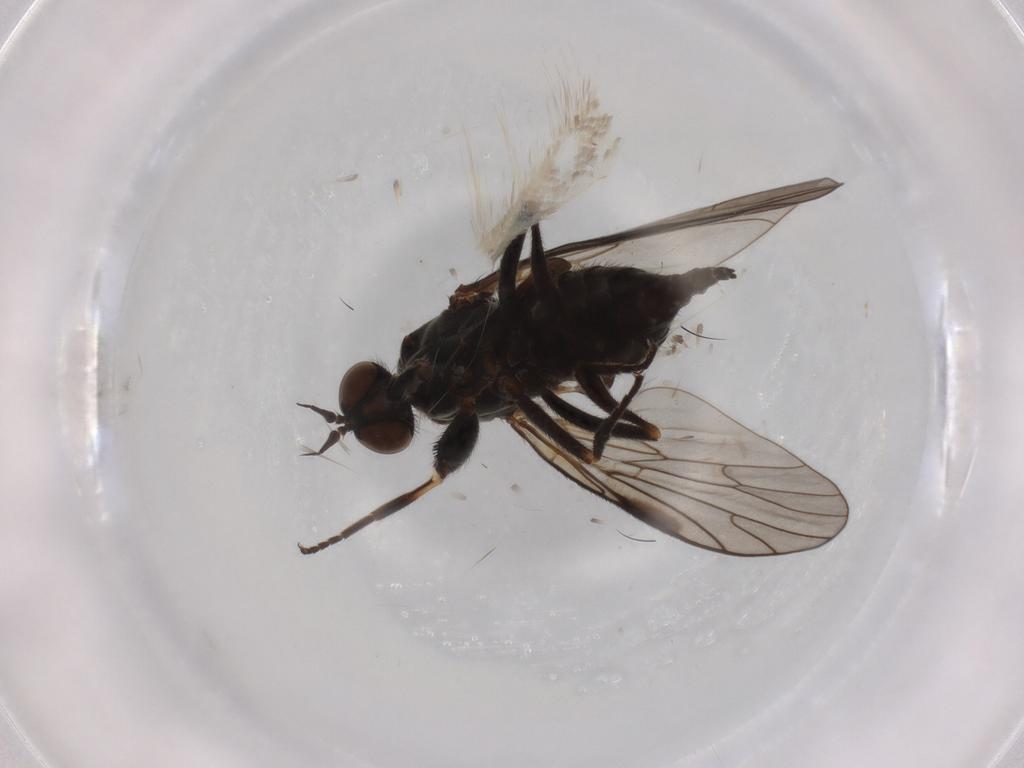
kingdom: Animalia
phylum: Arthropoda
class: Insecta
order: Diptera
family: Empididae
